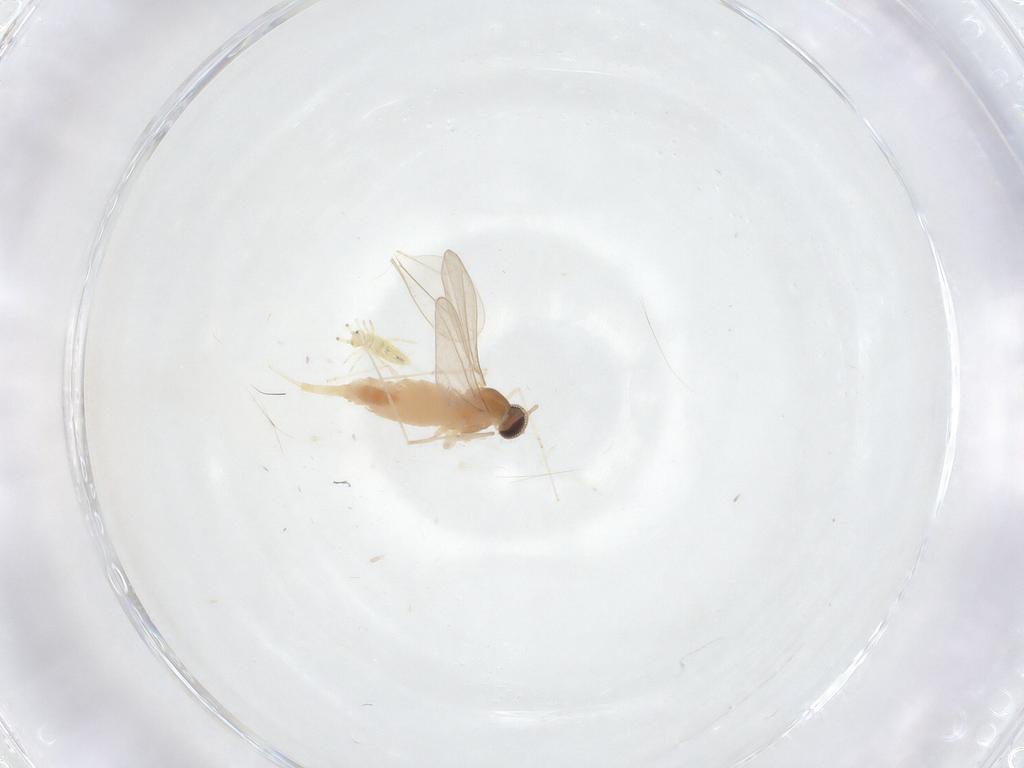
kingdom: Animalia
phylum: Arthropoda
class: Insecta
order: Diptera
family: Cecidomyiidae
